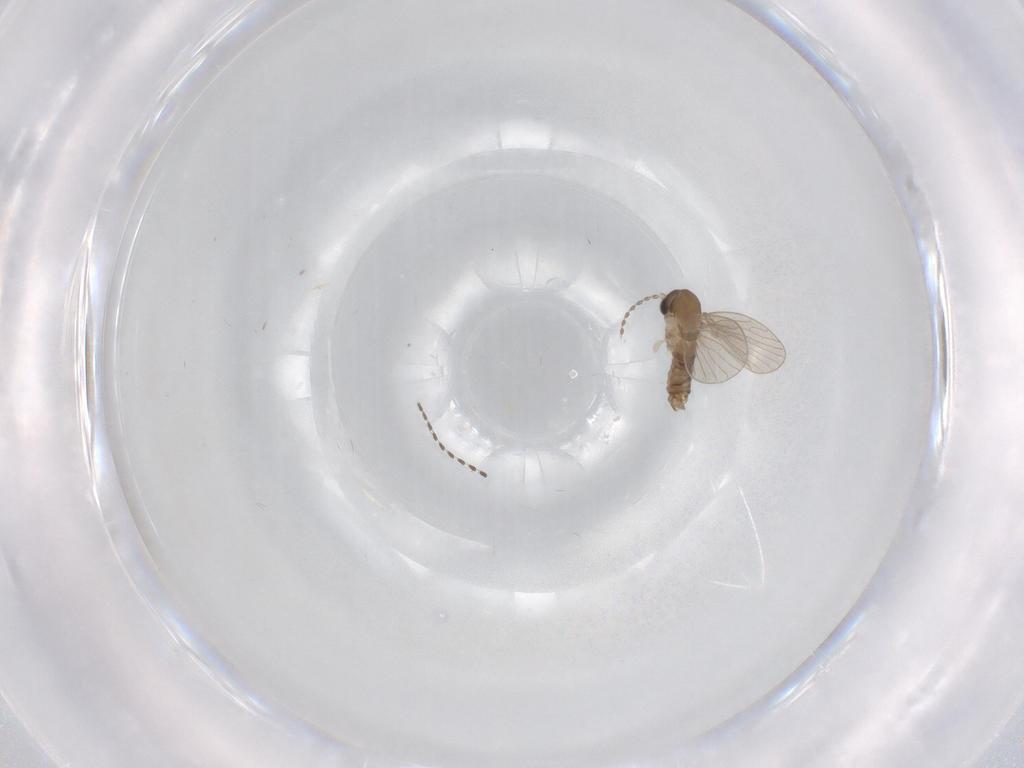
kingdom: Animalia
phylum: Arthropoda
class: Insecta
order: Diptera
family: Psychodidae
